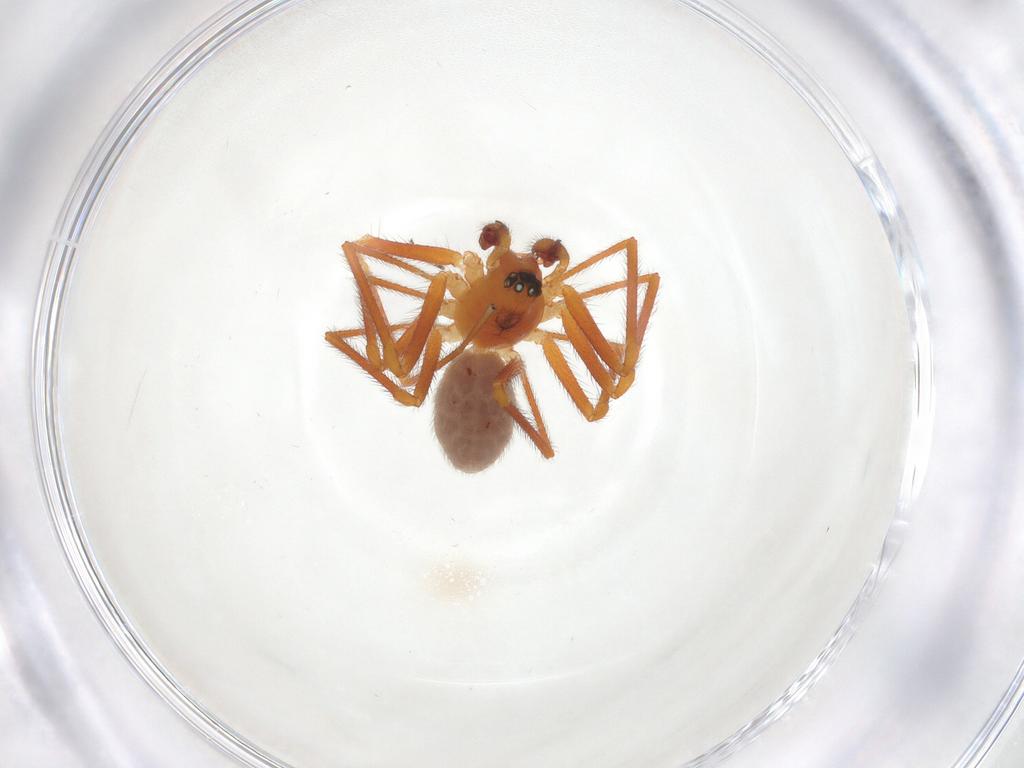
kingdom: Animalia
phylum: Arthropoda
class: Arachnida
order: Araneae
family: Linyphiidae
